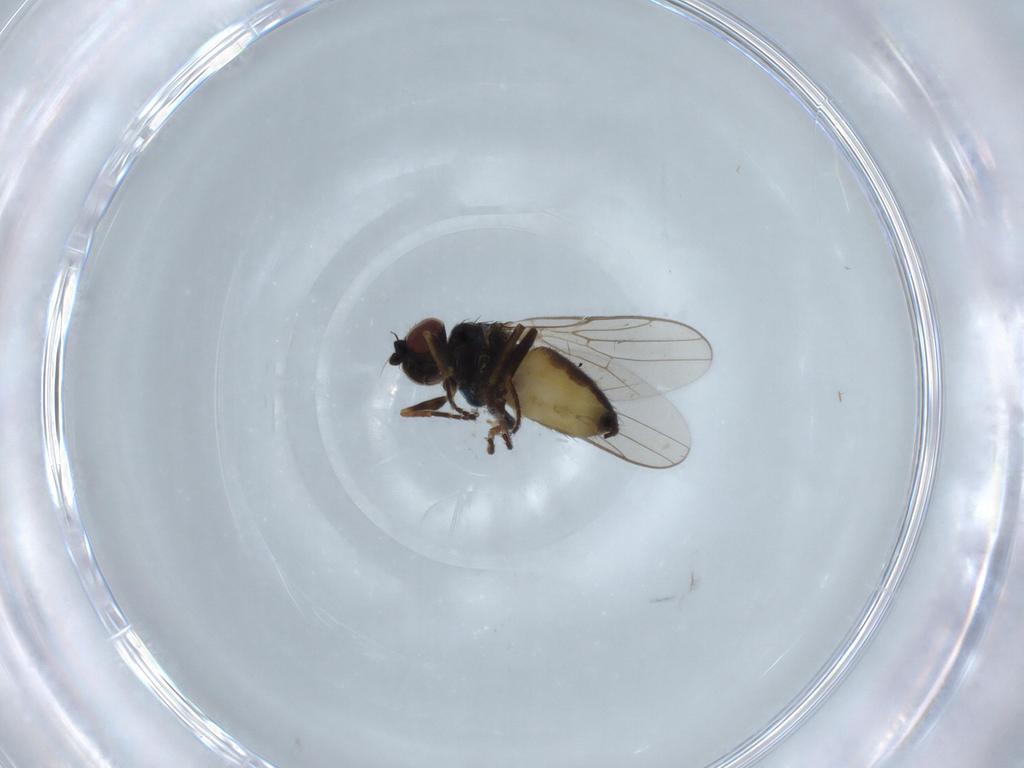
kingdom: Animalia
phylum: Arthropoda
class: Insecta
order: Diptera
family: Chloropidae
